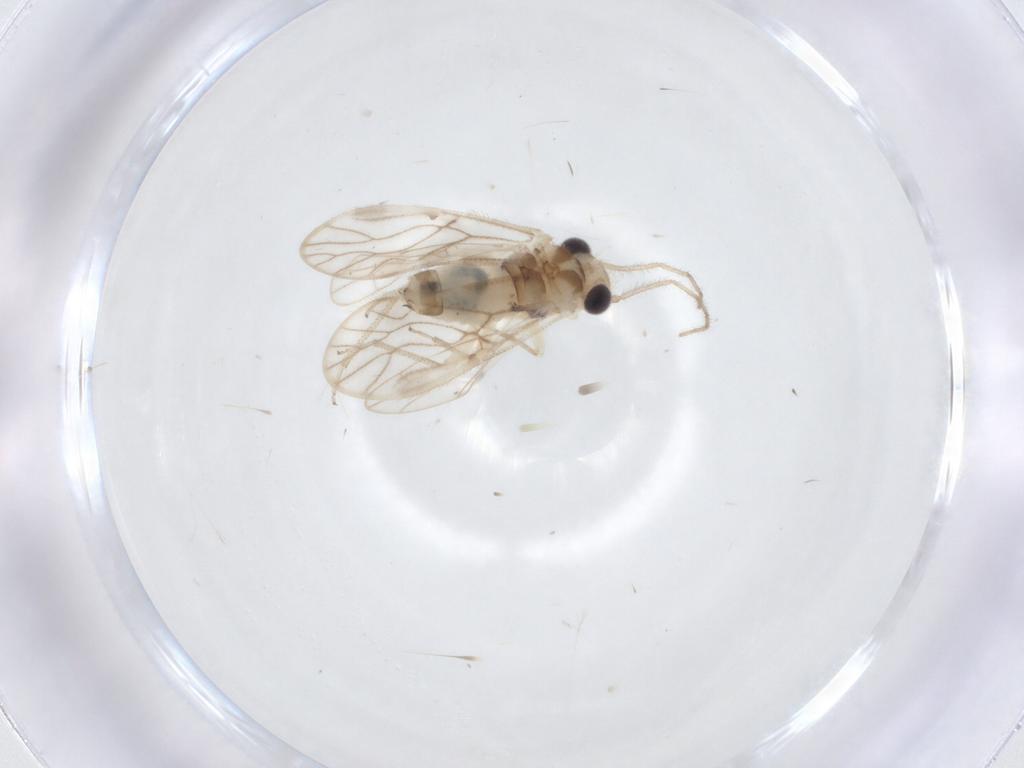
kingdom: Animalia
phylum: Arthropoda
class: Insecta
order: Psocodea
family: Caeciliusidae
